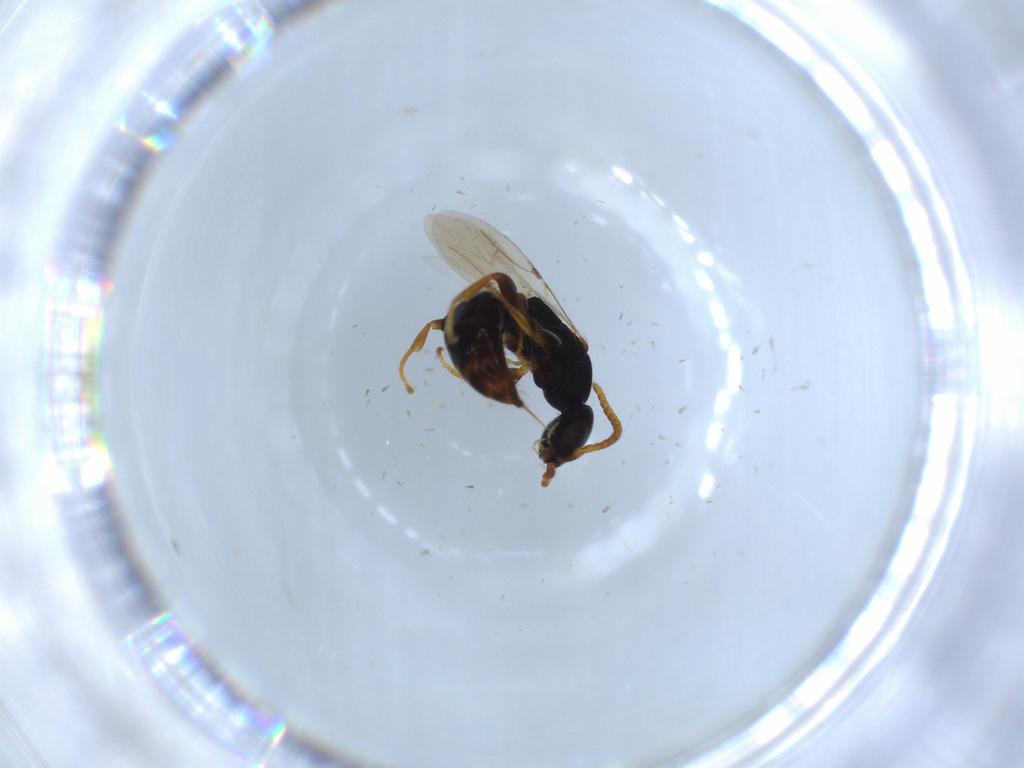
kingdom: Animalia
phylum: Arthropoda
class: Insecta
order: Hymenoptera
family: Bethylidae
